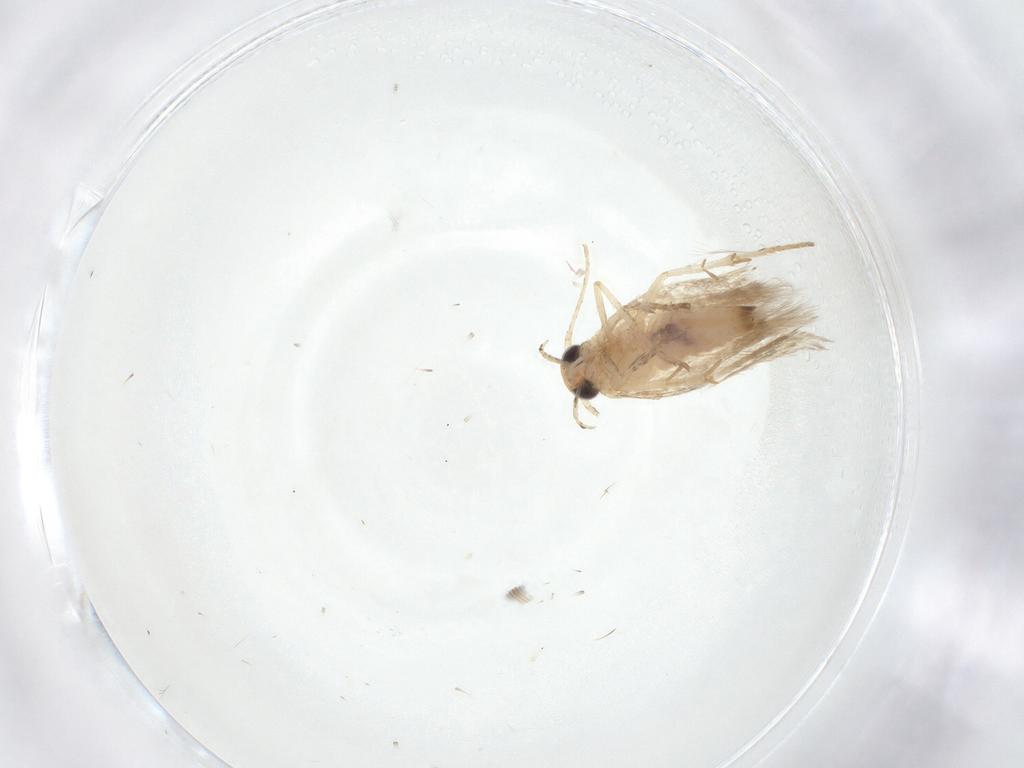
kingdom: Animalia
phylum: Arthropoda
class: Insecta
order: Lepidoptera
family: Gelechiidae
